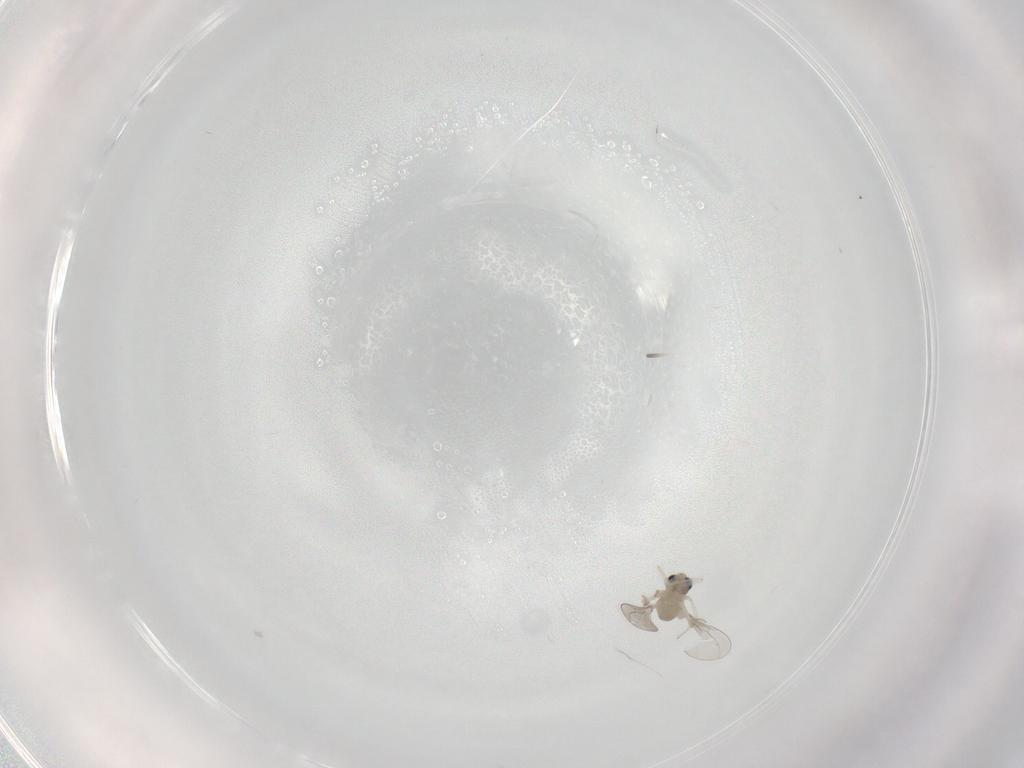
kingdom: Animalia
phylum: Arthropoda
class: Insecta
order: Diptera
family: Cecidomyiidae
